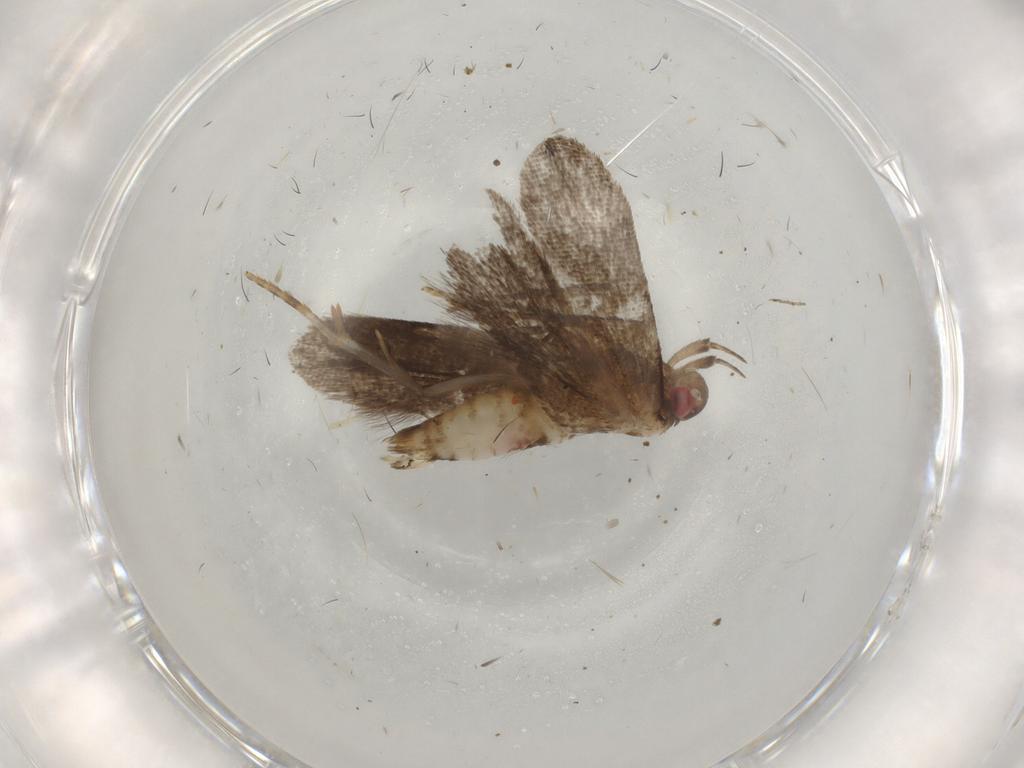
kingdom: Animalia
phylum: Arthropoda
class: Insecta
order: Lepidoptera
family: Gelechiidae
